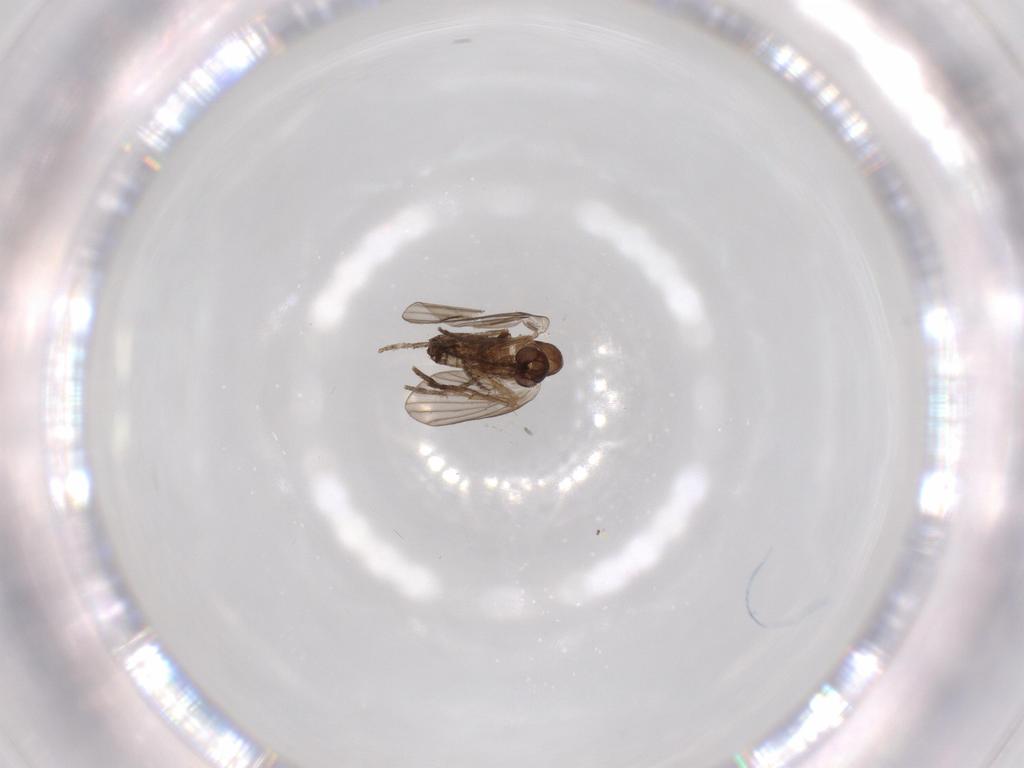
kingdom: Animalia
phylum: Arthropoda
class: Insecta
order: Diptera
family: Psychodidae
